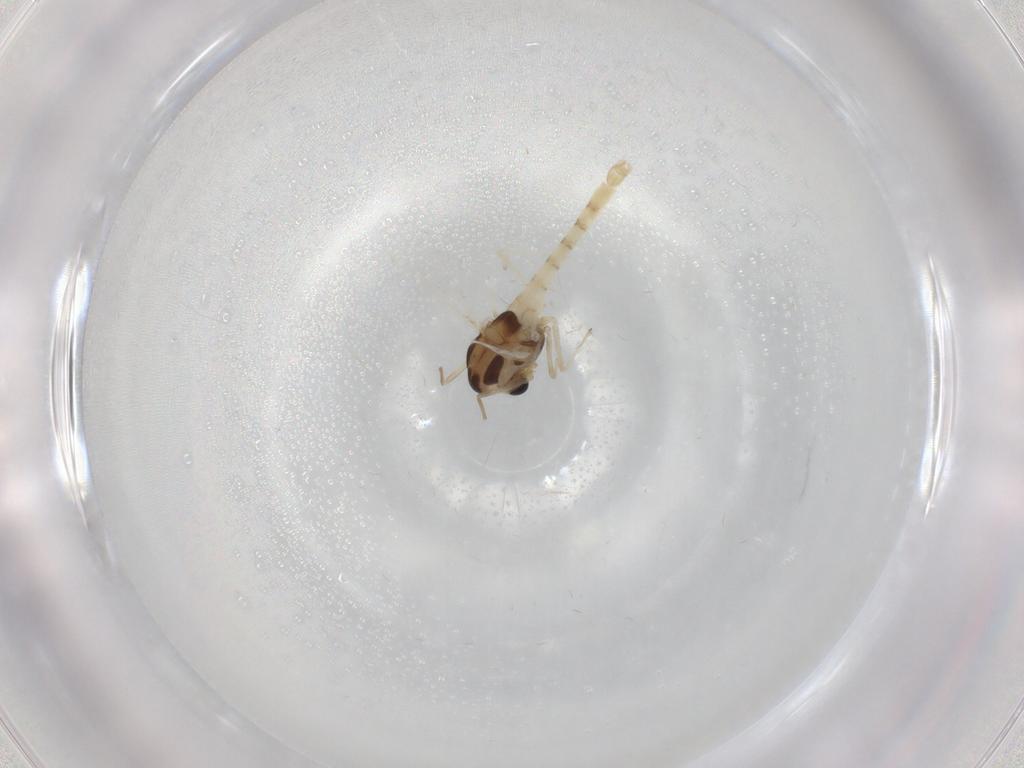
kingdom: Animalia
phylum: Arthropoda
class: Insecta
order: Diptera
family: Chironomidae
